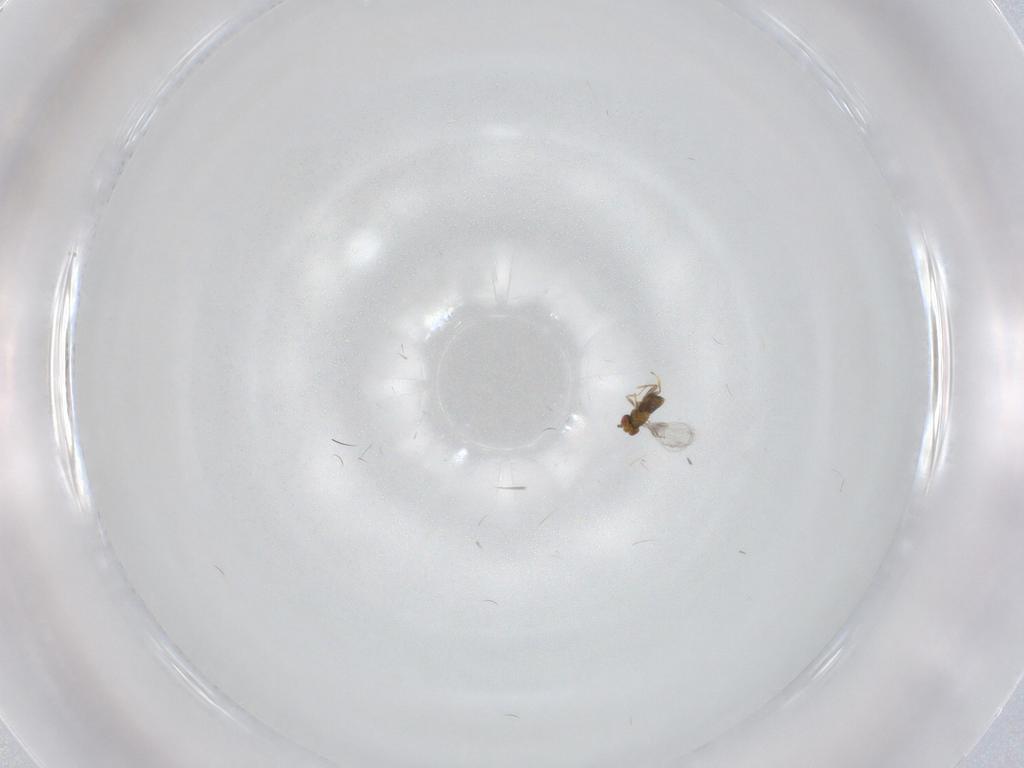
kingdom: Animalia
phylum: Arthropoda
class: Insecta
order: Hymenoptera
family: Trichogrammatidae
